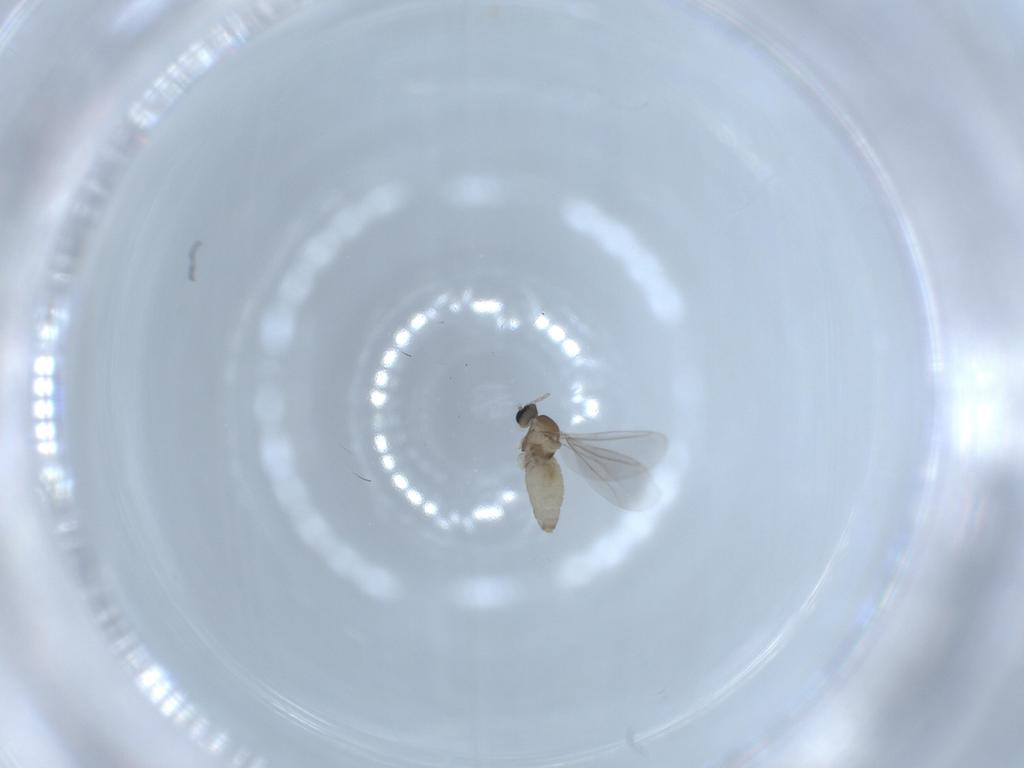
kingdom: Animalia
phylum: Arthropoda
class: Insecta
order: Diptera
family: Cecidomyiidae
